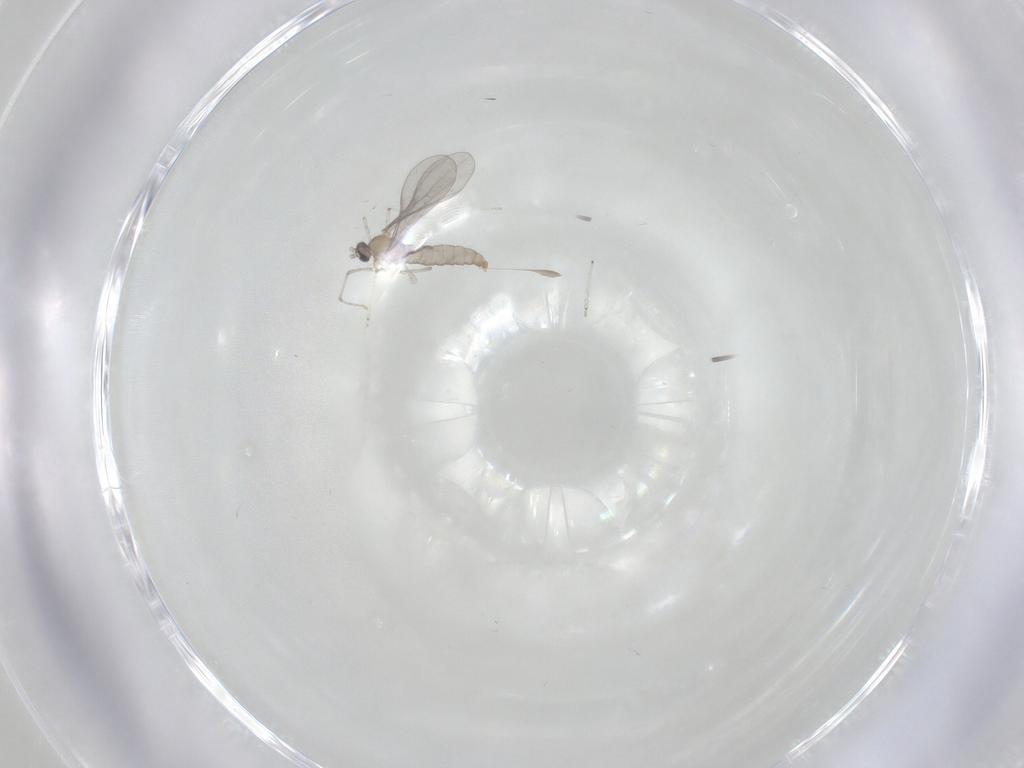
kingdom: Animalia
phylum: Arthropoda
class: Insecta
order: Diptera
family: Cecidomyiidae
